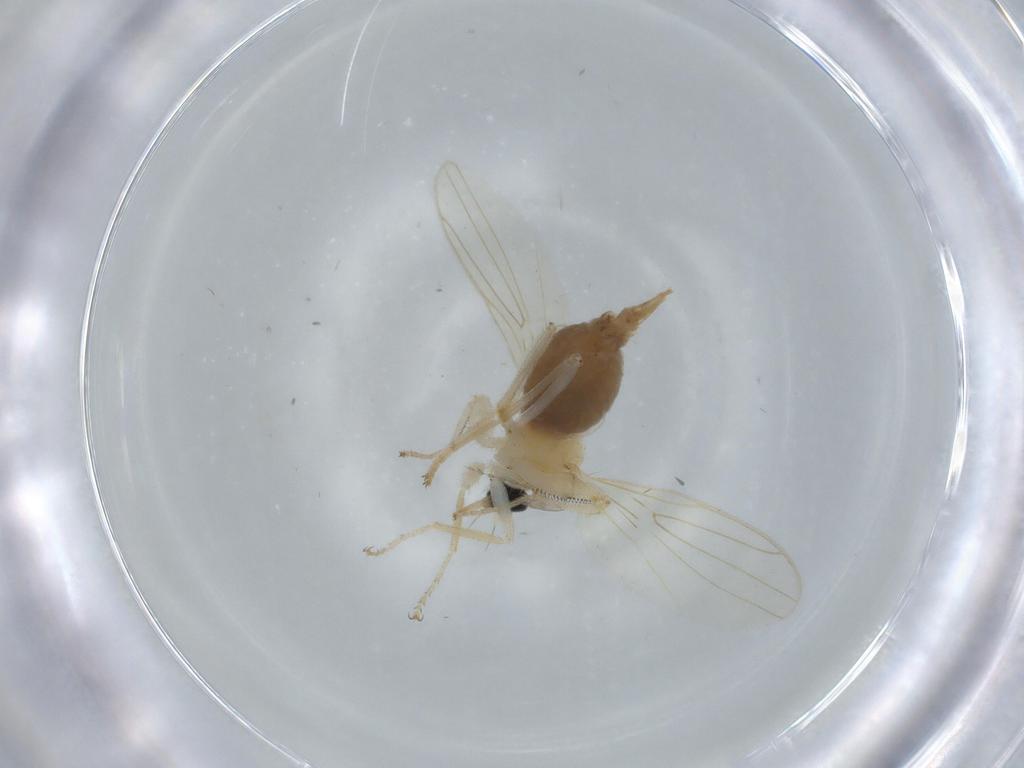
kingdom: Animalia
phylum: Arthropoda
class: Insecta
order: Diptera
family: Hybotidae
